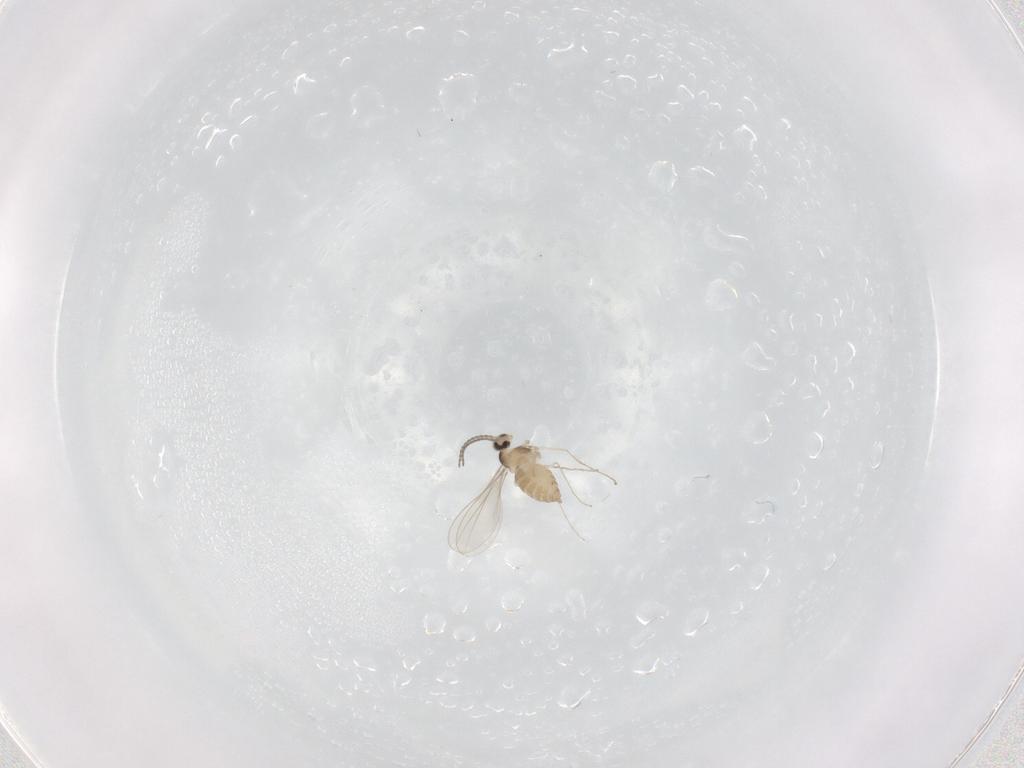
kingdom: Animalia
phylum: Arthropoda
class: Insecta
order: Diptera
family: Cecidomyiidae
